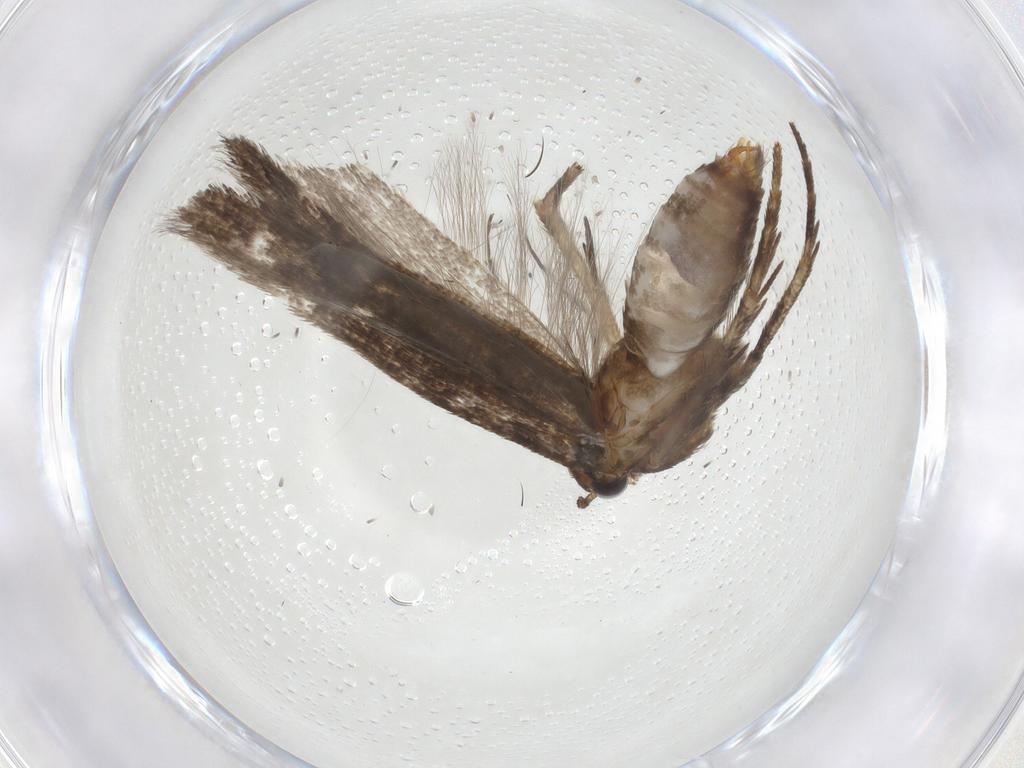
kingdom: Animalia
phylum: Arthropoda
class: Insecta
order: Lepidoptera
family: Gelechiidae
